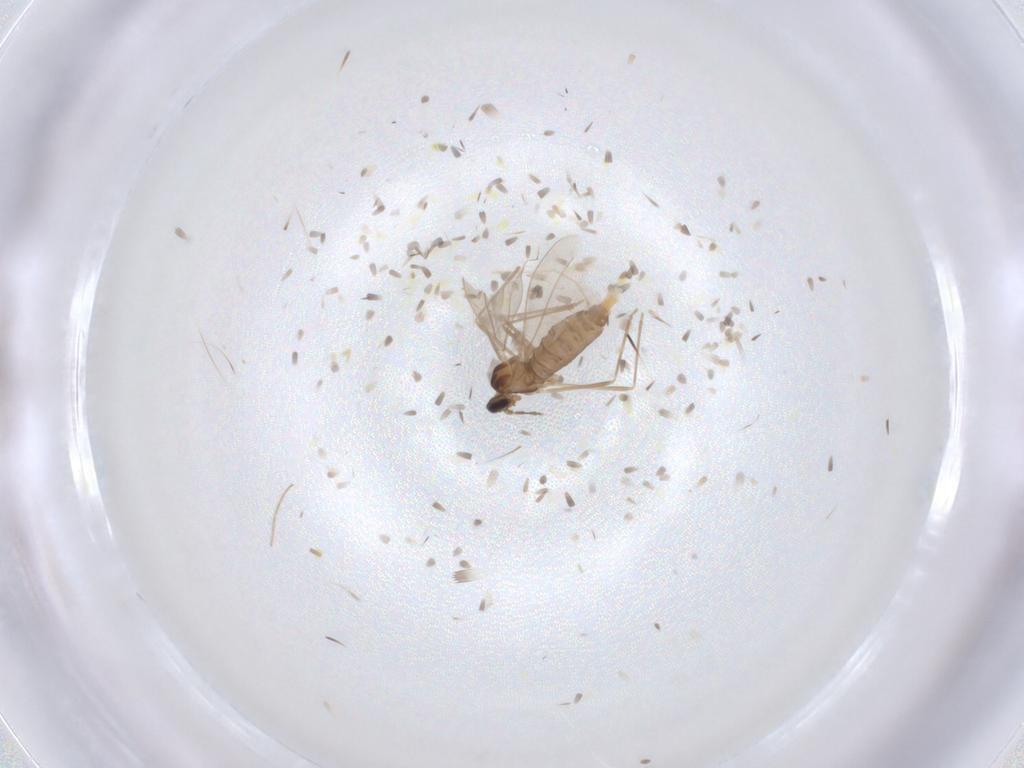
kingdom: Animalia
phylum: Arthropoda
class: Insecta
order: Diptera
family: Cecidomyiidae
